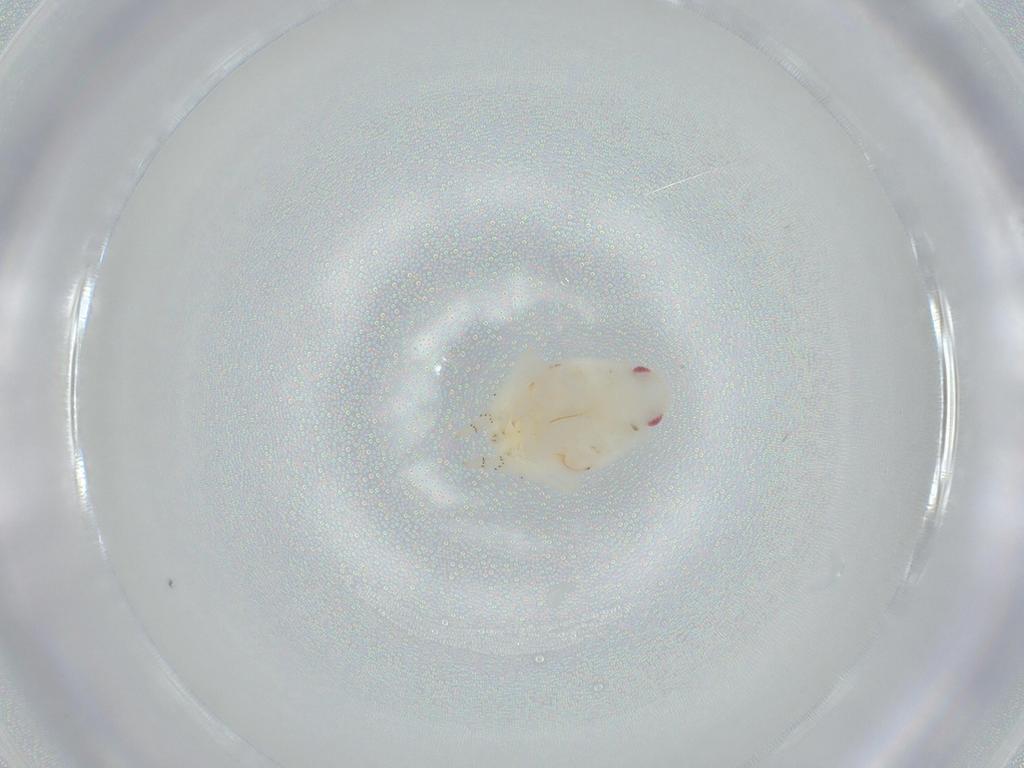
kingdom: Animalia
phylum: Arthropoda
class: Insecta
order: Hemiptera
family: Flatidae
